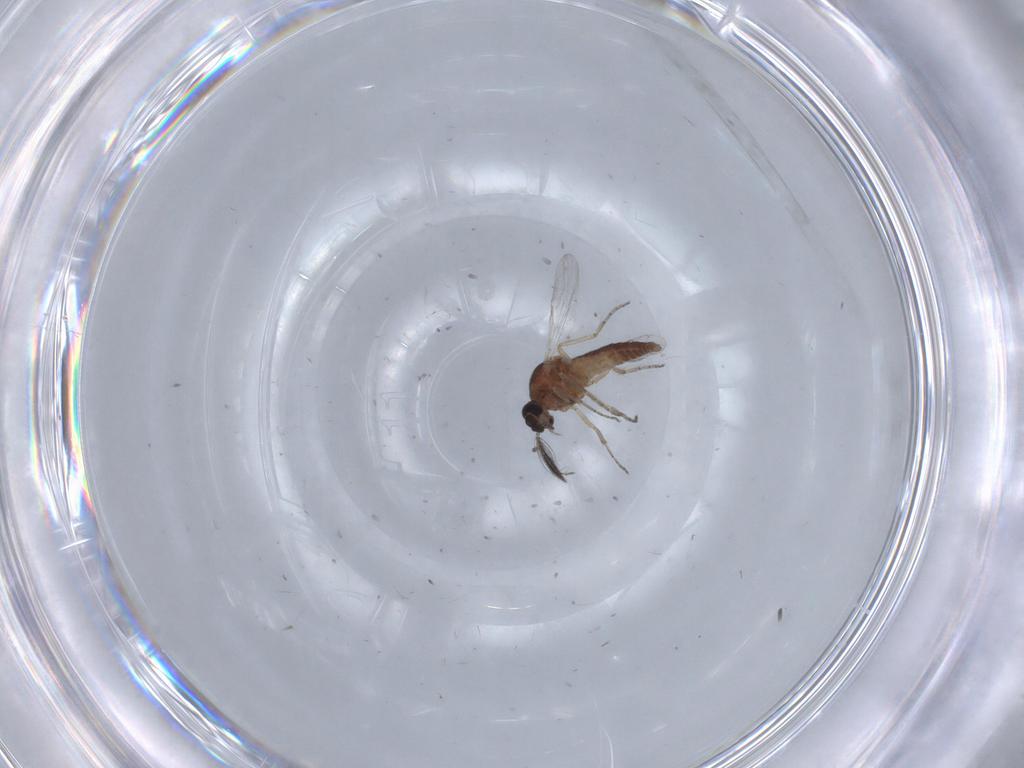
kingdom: Animalia
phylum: Arthropoda
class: Insecta
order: Diptera
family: Ceratopogonidae
